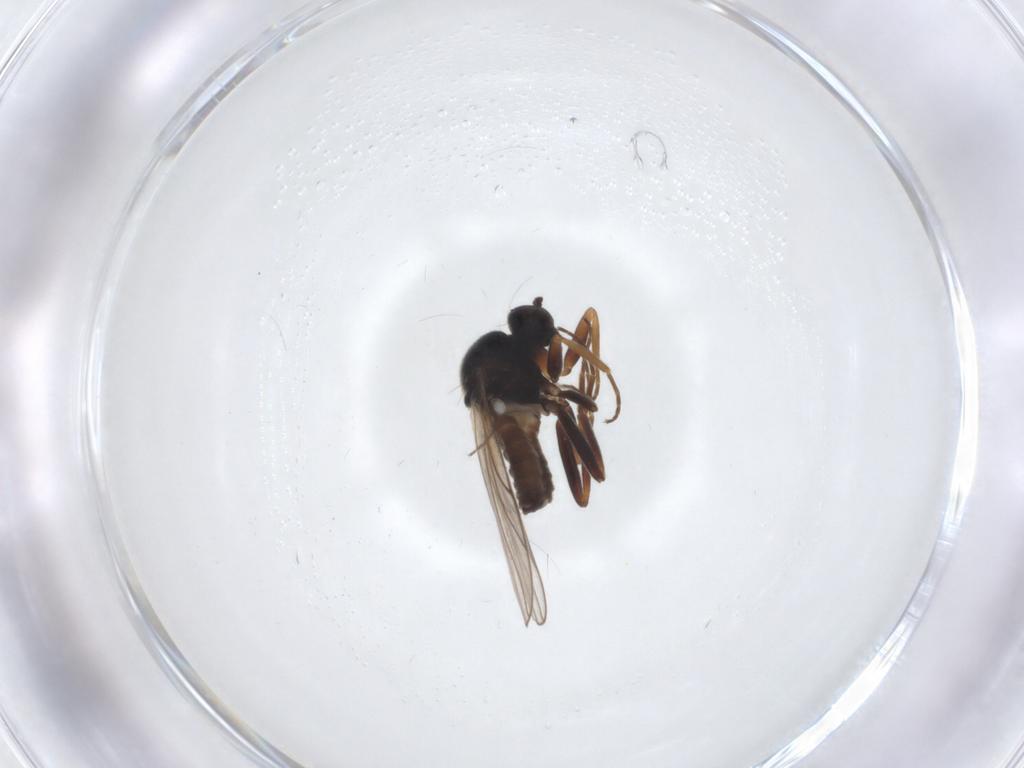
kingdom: Animalia
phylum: Arthropoda
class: Insecta
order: Diptera
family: Hybotidae
